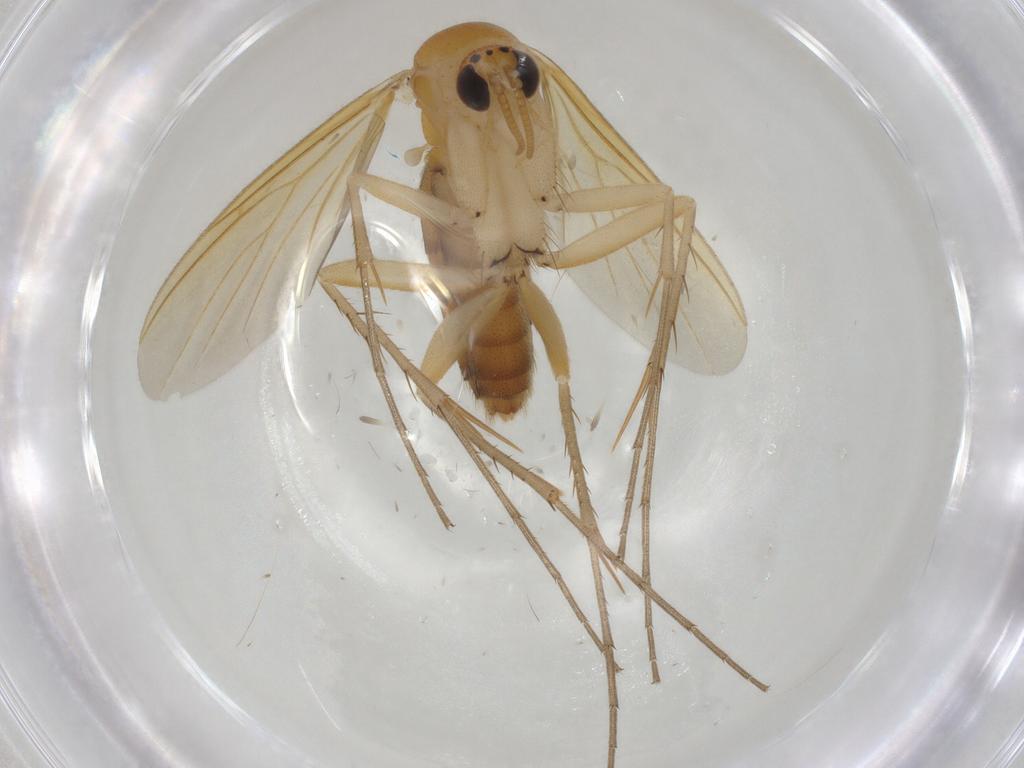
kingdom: Animalia
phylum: Arthropoda
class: Insecta
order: Diptera
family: Mycetophilidae
